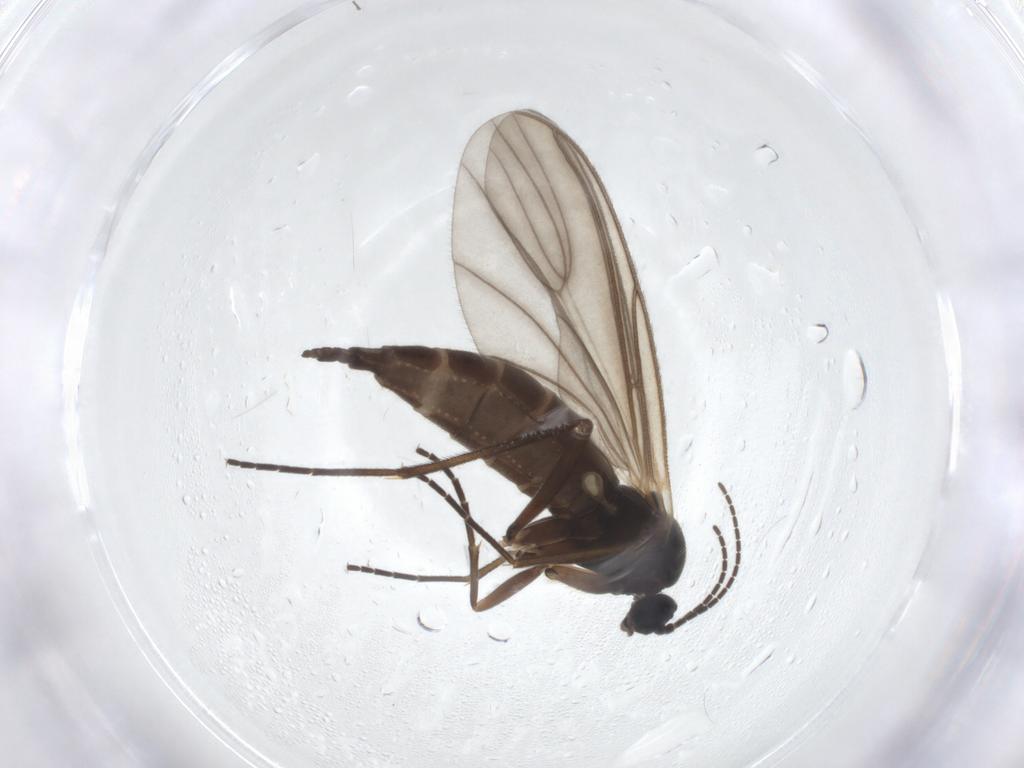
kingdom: Animalia
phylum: Arthropoda
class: Insecta
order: Diptera
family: Sciaridae
